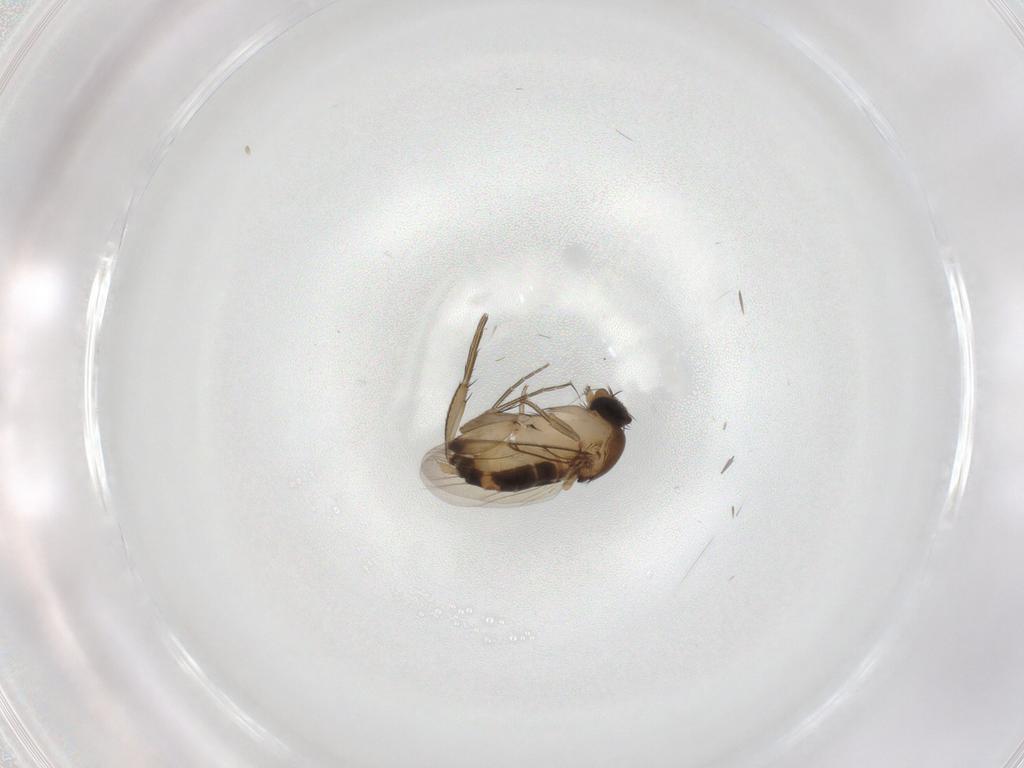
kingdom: Animalia
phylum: Arthropoda
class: Insecta
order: Diptera
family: Phoridae
